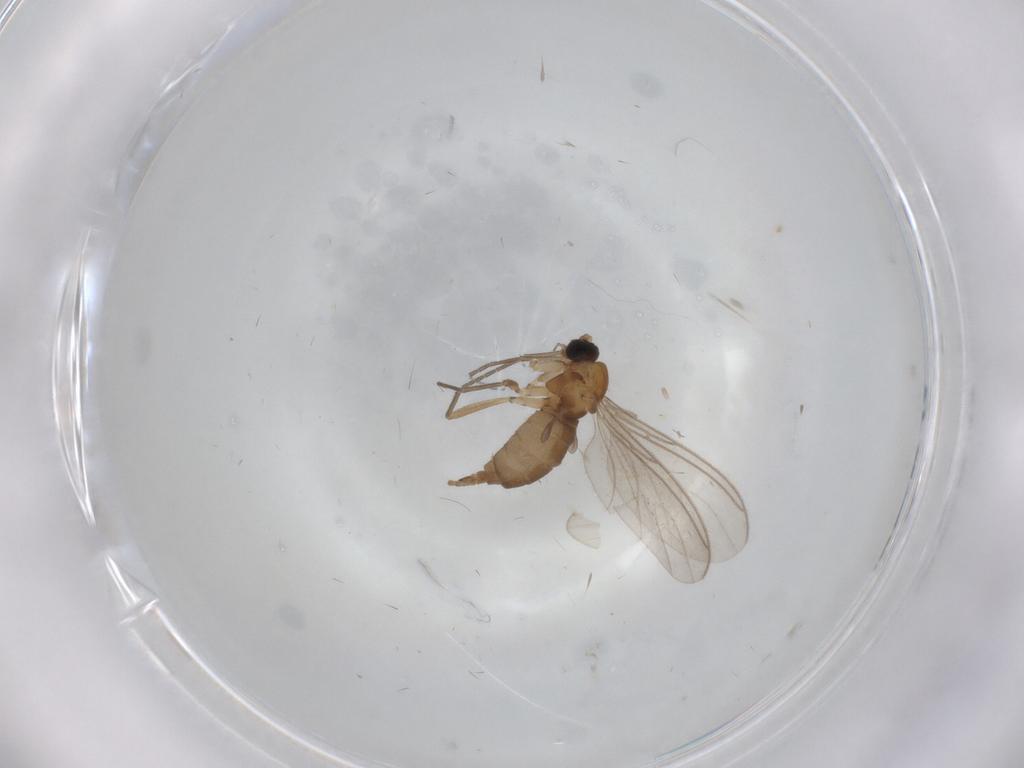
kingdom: Animalia
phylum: Arthropoda
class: Insecta
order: Diptera
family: Sciaridae
